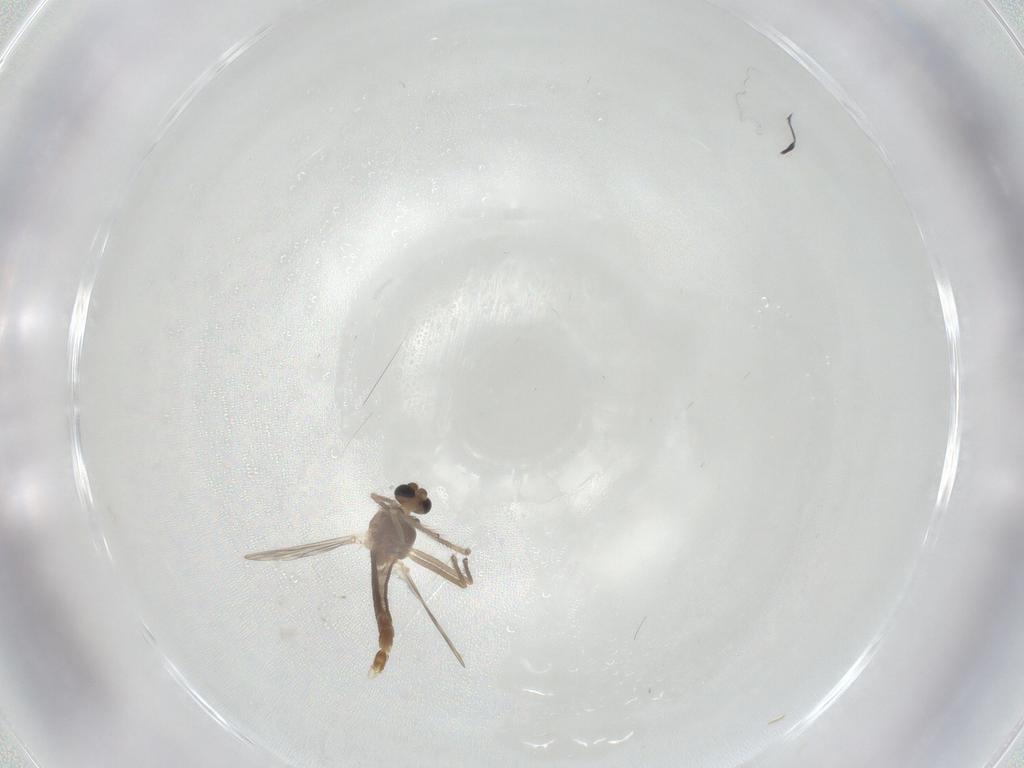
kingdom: Animalia
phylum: Arthropoda
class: Insecta
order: Diptera
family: Chironomidae
